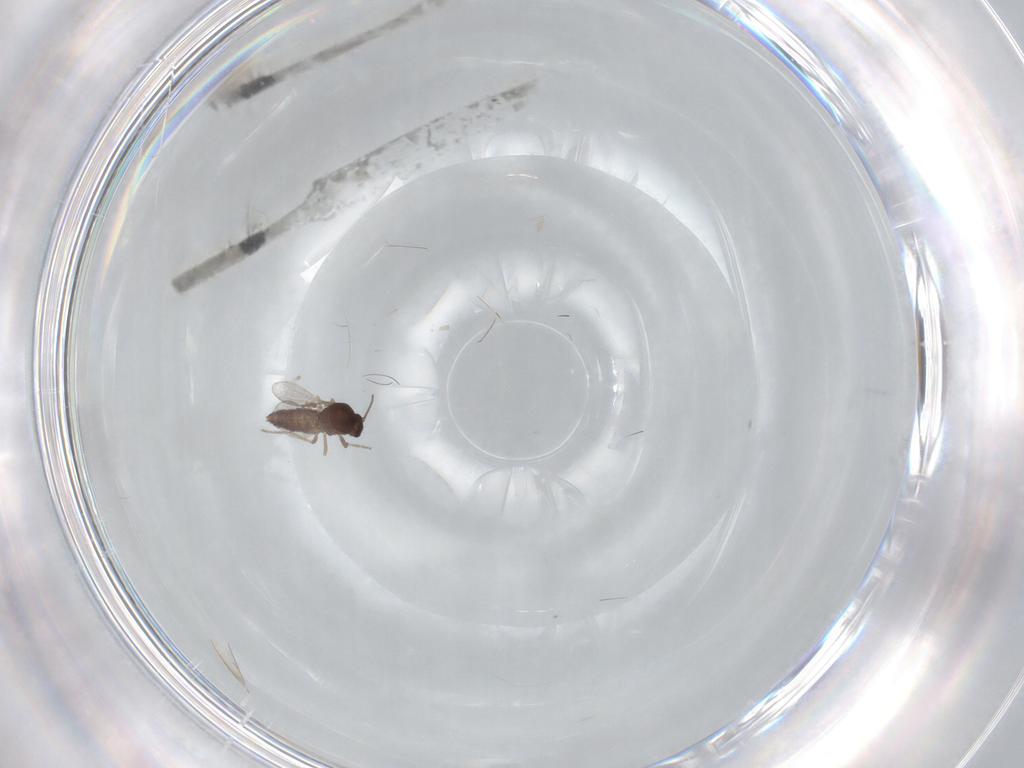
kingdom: Animalia
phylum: Arthropoda
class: Insecta
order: Diptera
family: Ceratopogonidae
